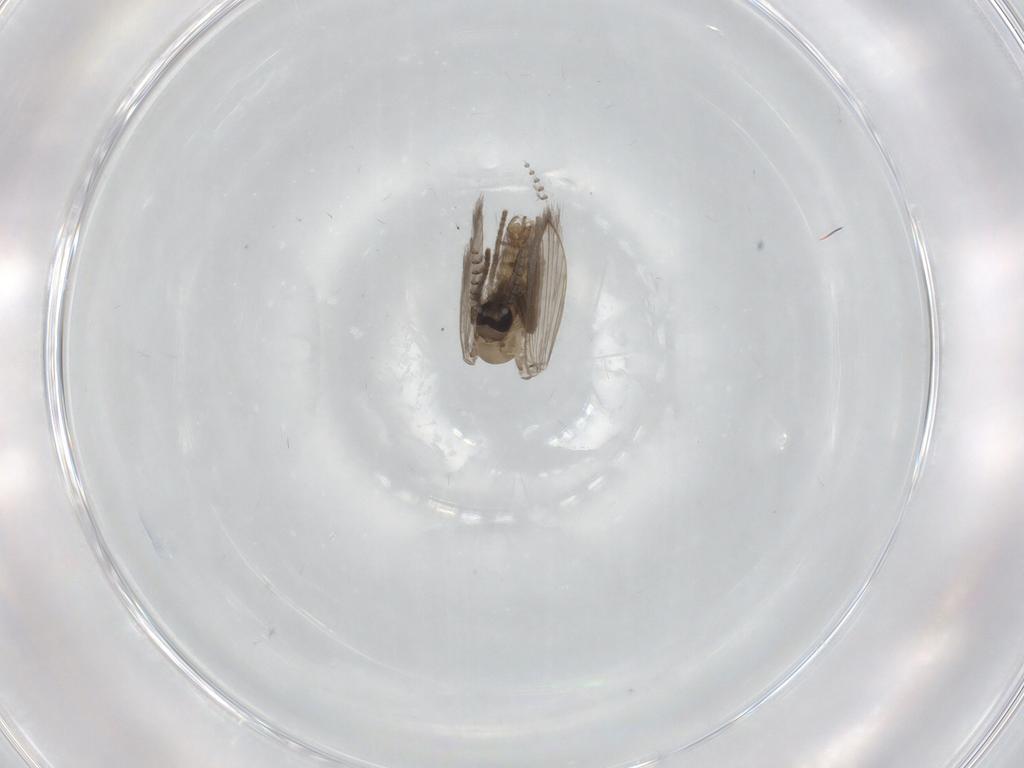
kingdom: Animalia
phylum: Arthropoda
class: Insecta
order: Diptera
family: Psychodidae
